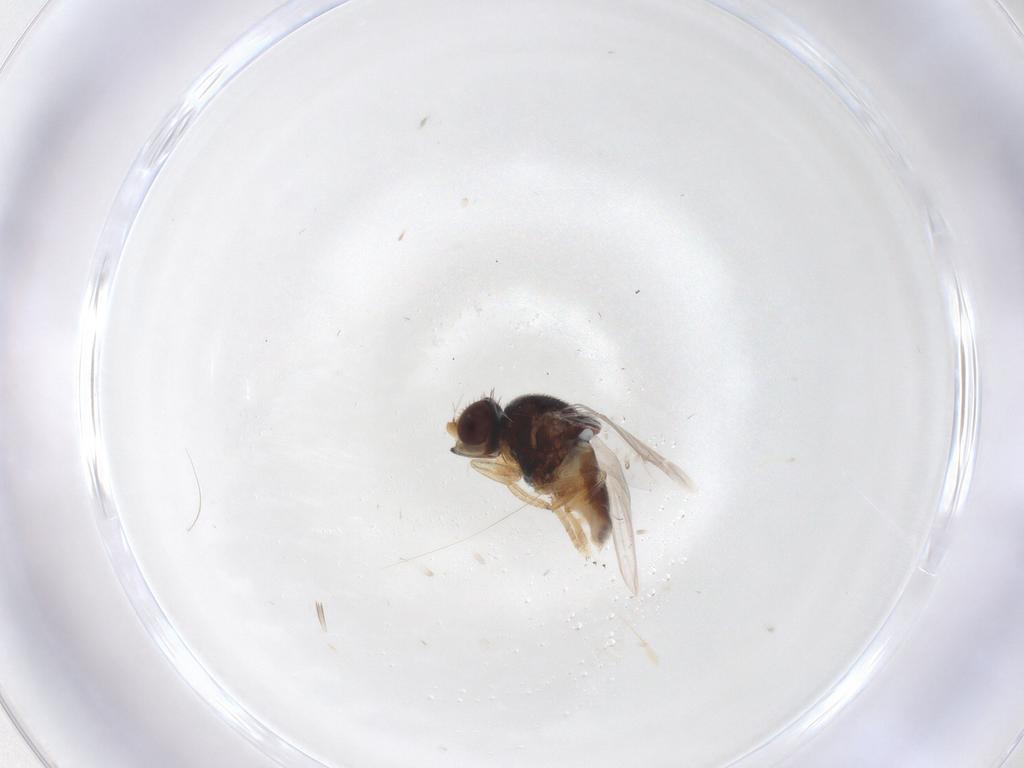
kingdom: Animalia
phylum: Arthropoda
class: Insecta
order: Diptera
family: Chloropidae
